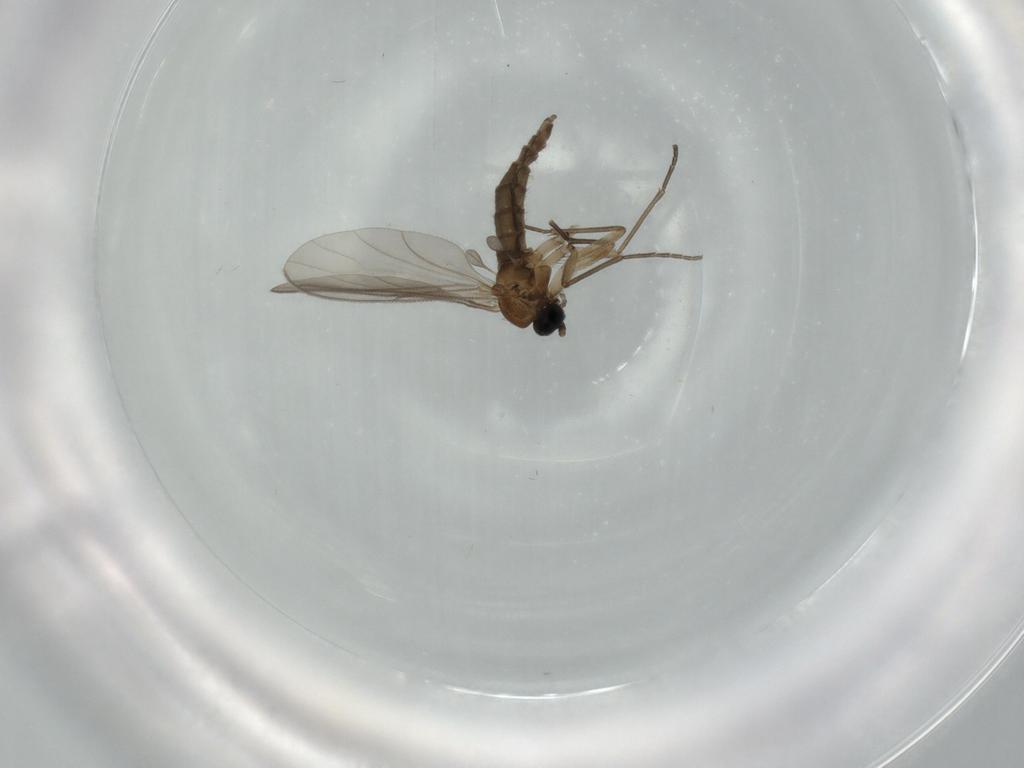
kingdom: Animalia
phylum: Arthropoda
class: Insecta
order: Diptera
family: Sciaridae
